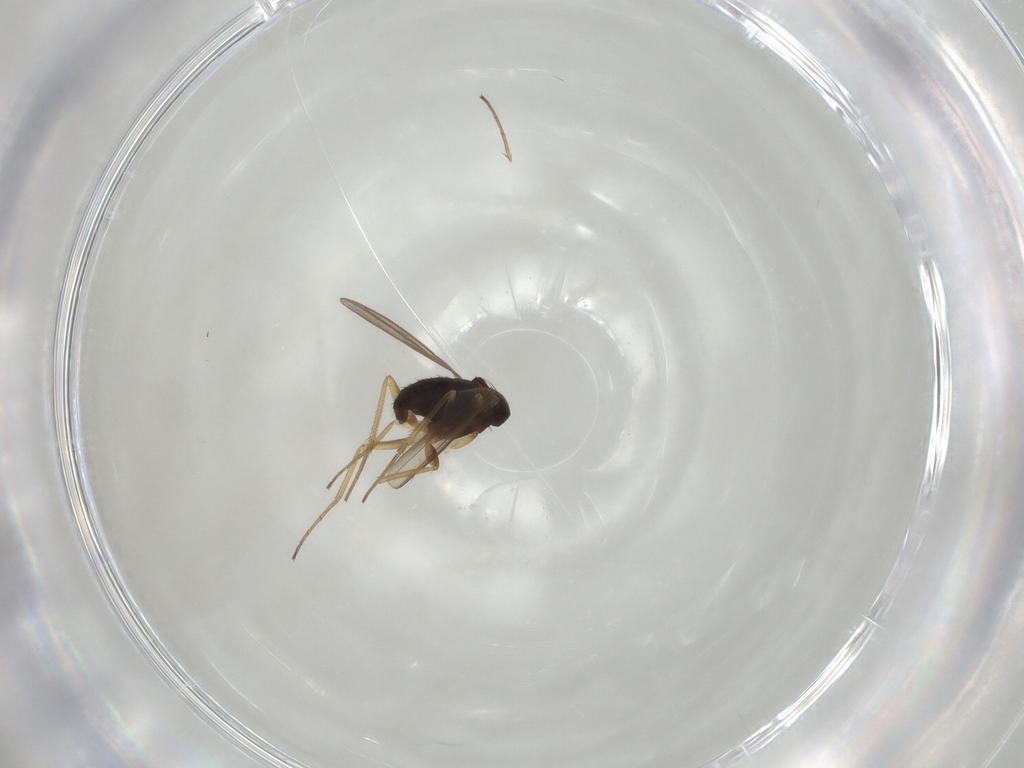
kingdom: Animalia
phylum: Arthropoda
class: Insecta
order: Diptera
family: Dolichopodidae
